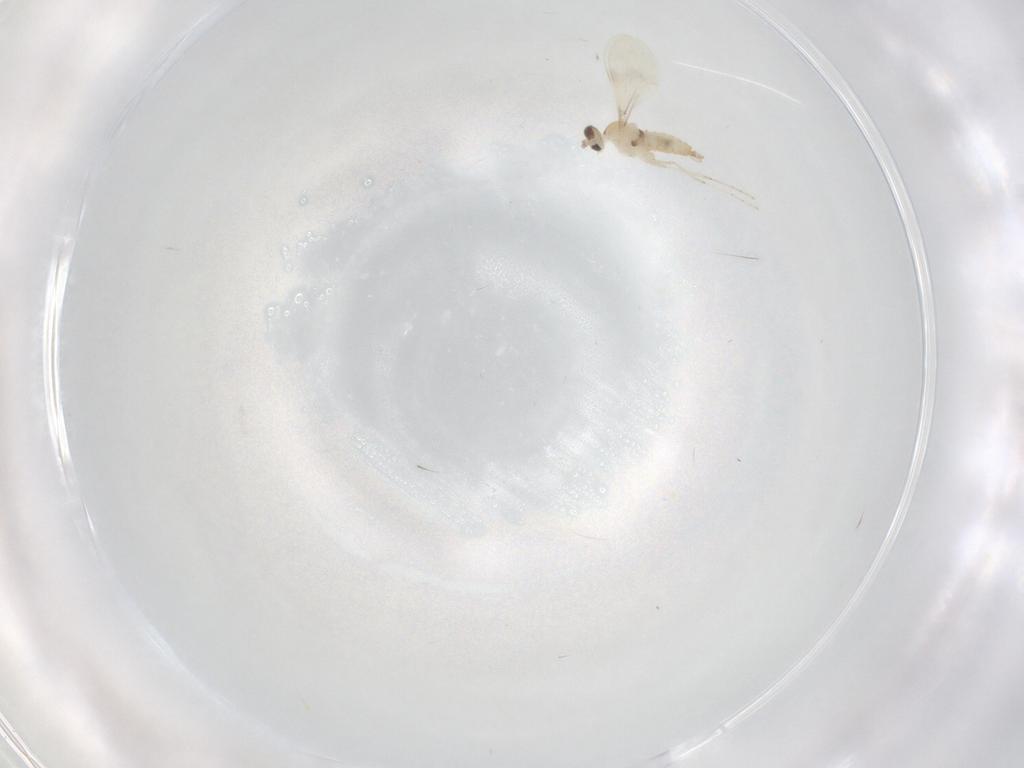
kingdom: Animalia
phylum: Arthropoda
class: Insecta
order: Diptera
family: Cecidomyiidae
